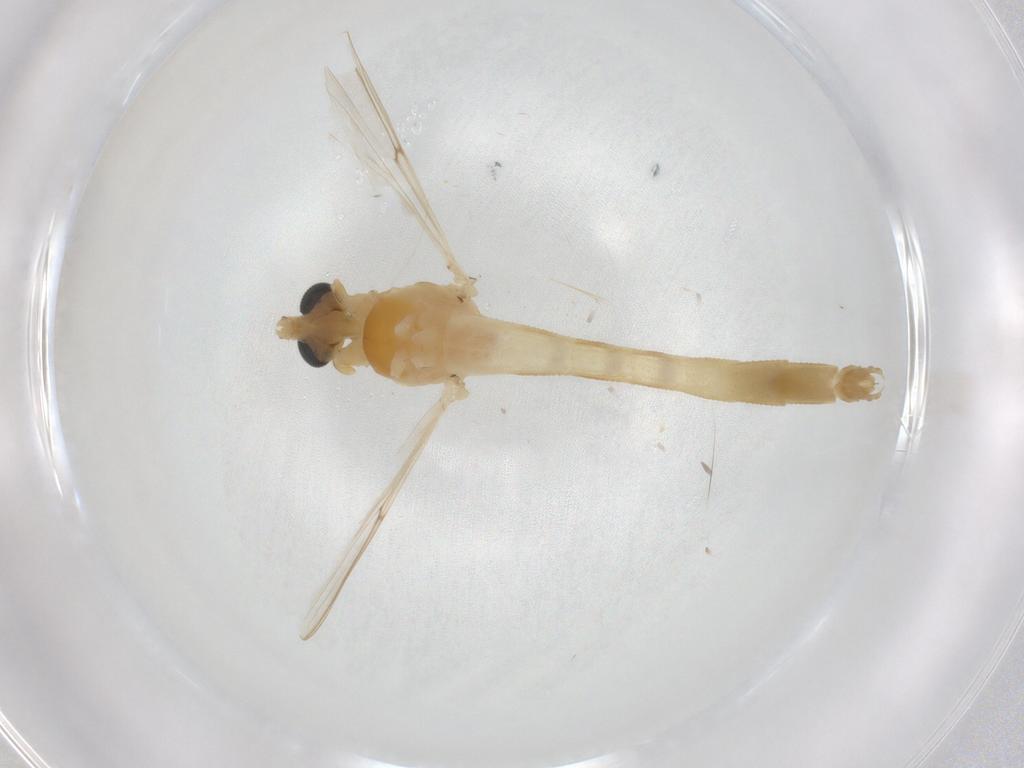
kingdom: Animalia
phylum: Arthropoda
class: Insecta
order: Diptera
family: Chironomidae
